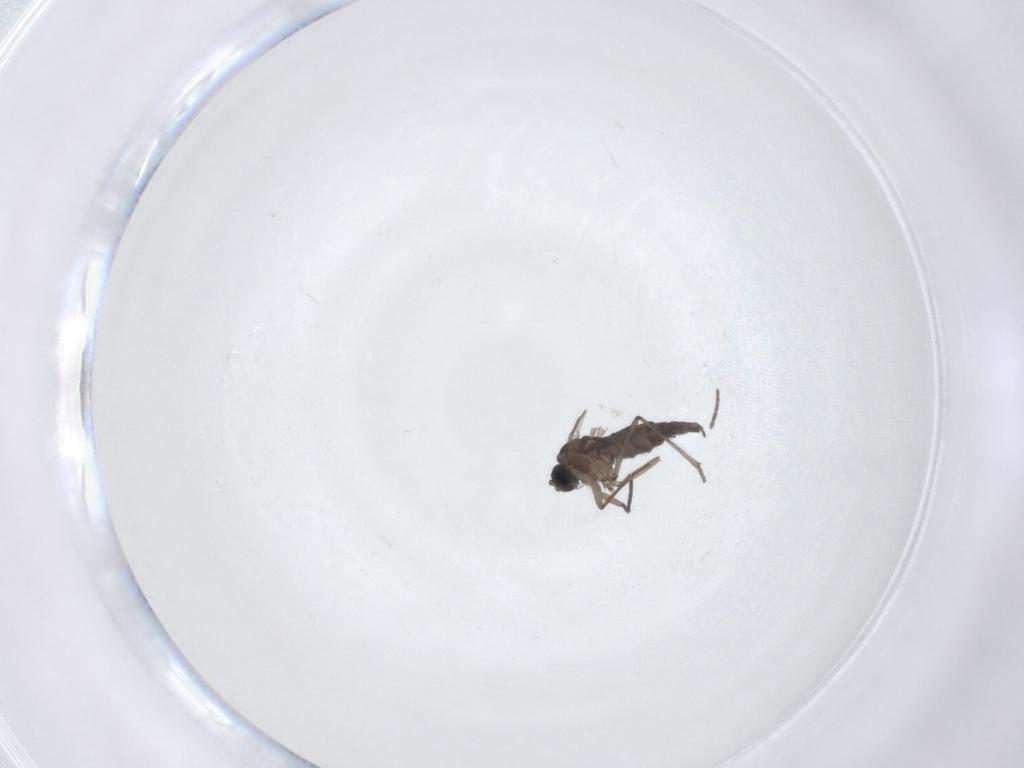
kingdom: Animalia
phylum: Arthropoda
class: Insecta
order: Diptera
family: Sciaridae
